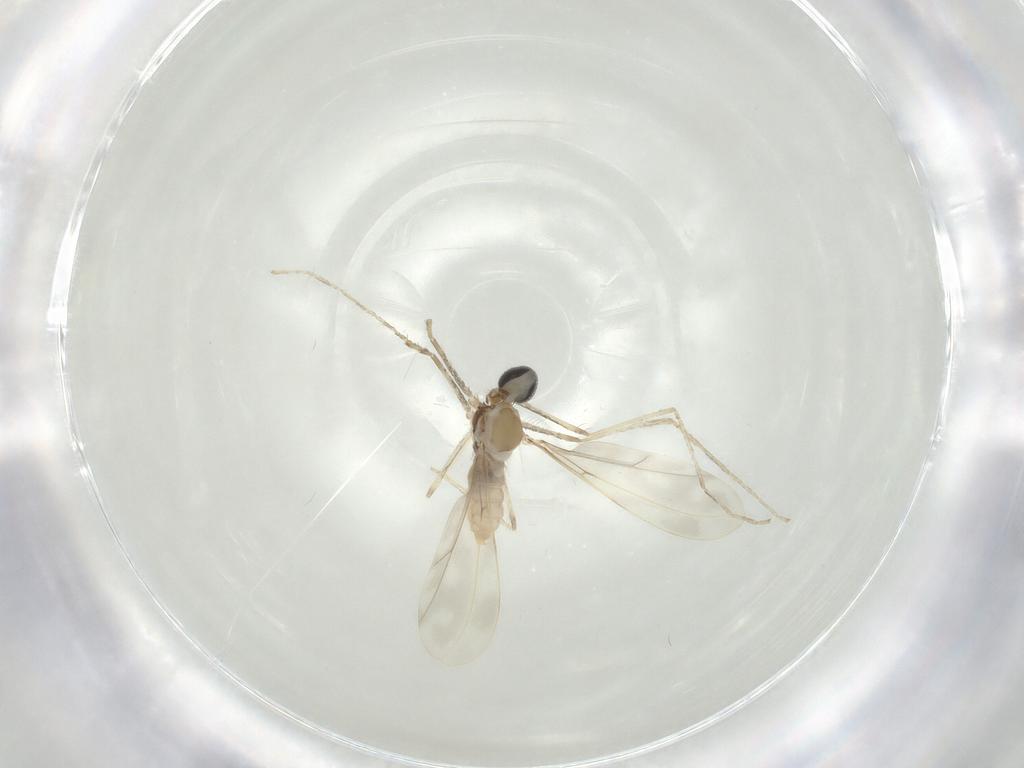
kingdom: Animalia
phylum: Arthropoda
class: Insecta
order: Diptera
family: Cecidomyiidae
